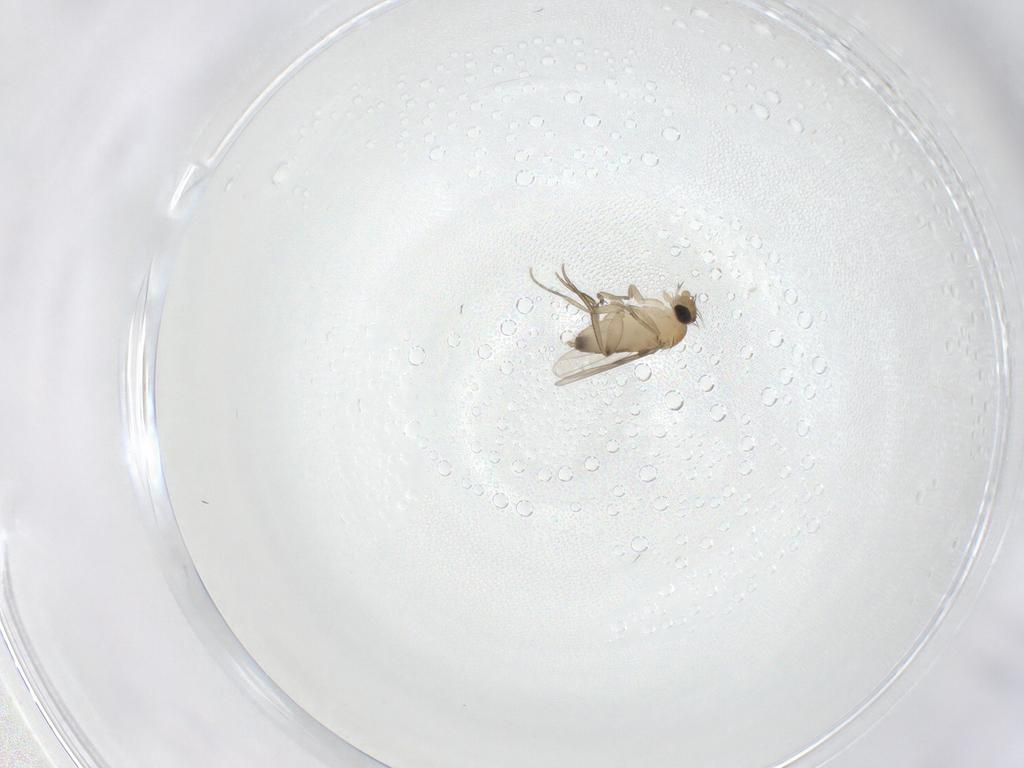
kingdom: Animalia
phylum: Arthropoda
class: Insecta
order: Diptera
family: Phoridae
